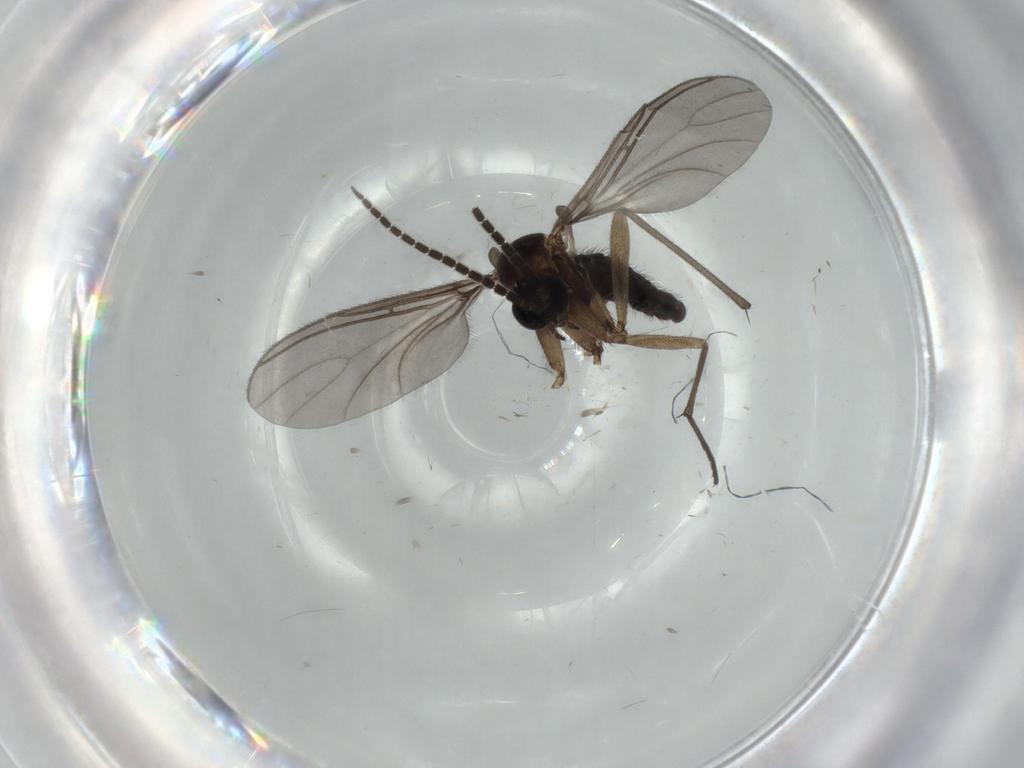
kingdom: Animalia
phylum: Arthropoda
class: Insecta
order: Diptera
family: Sciaridae
